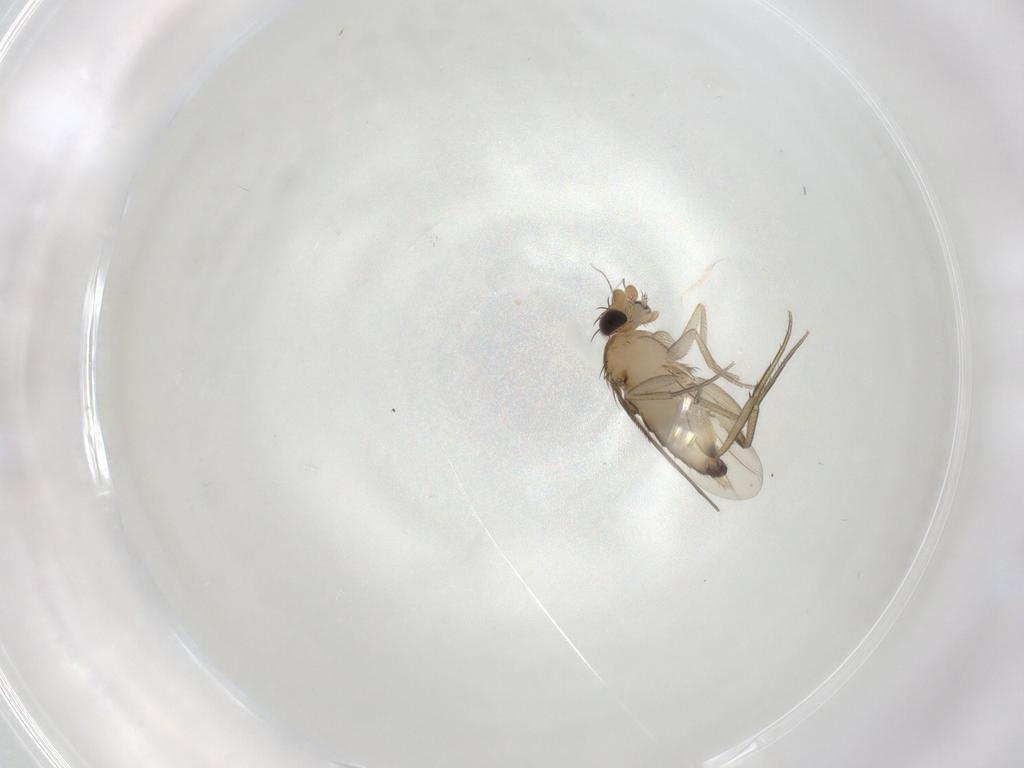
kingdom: Animalia
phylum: Arthropoda
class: Insecta
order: Diptera
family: Phoridae
